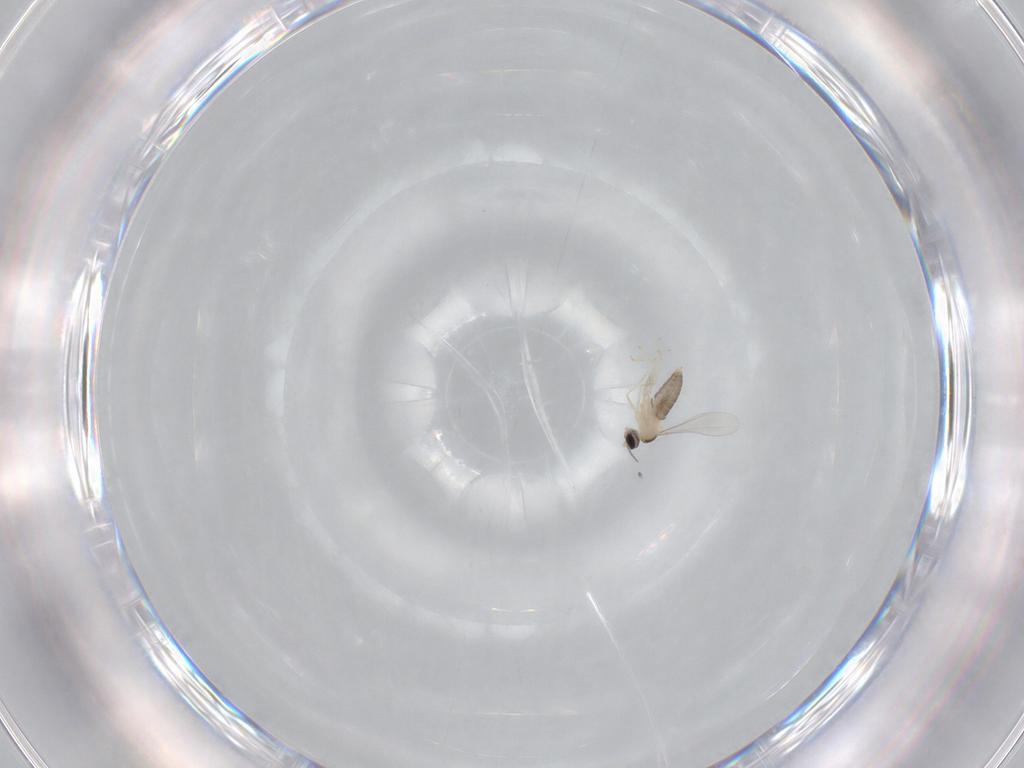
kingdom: Animalia
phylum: Arthropoda
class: Insecta
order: Diptera
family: Cecidomyiidae
